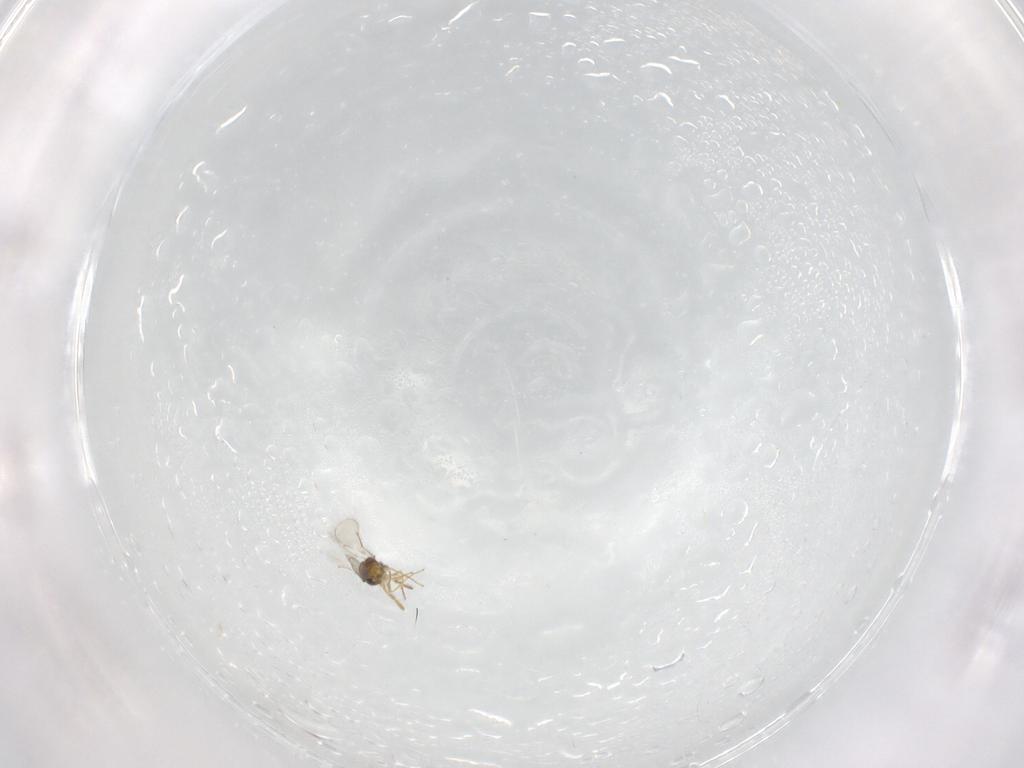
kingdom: Animalia
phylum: Arthropoda
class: Insecta
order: Hymenoptera
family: Aphelinidae
